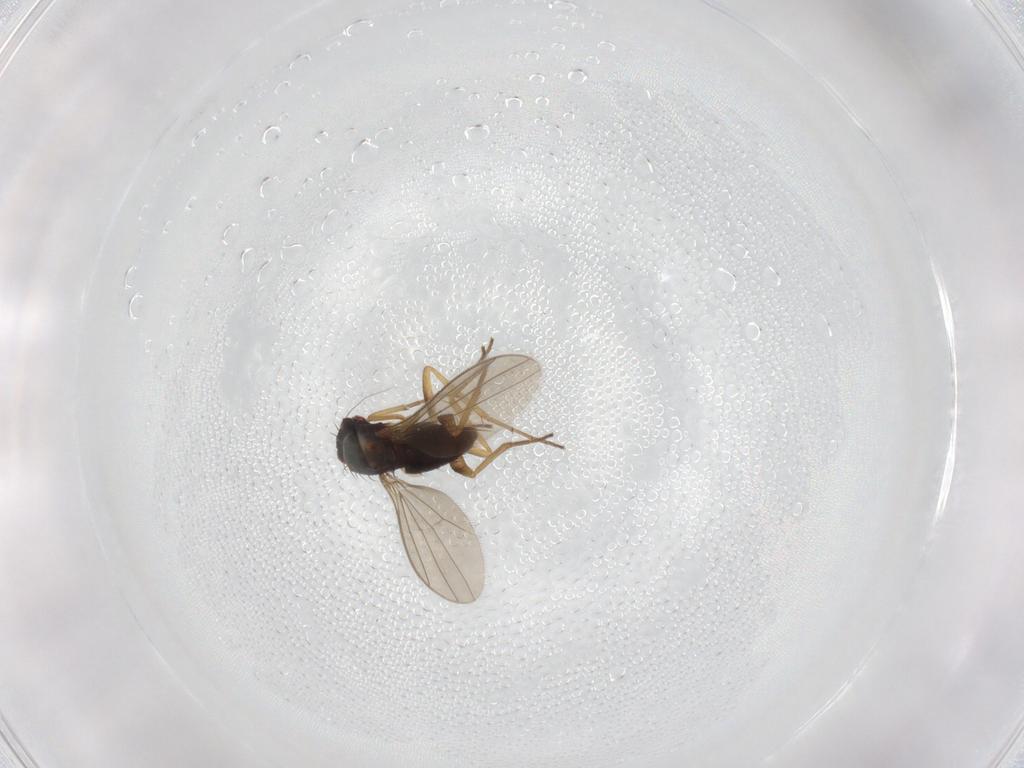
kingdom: Animalia
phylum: Arthropoda
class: Insecta
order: Diptera
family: Limoniidae
